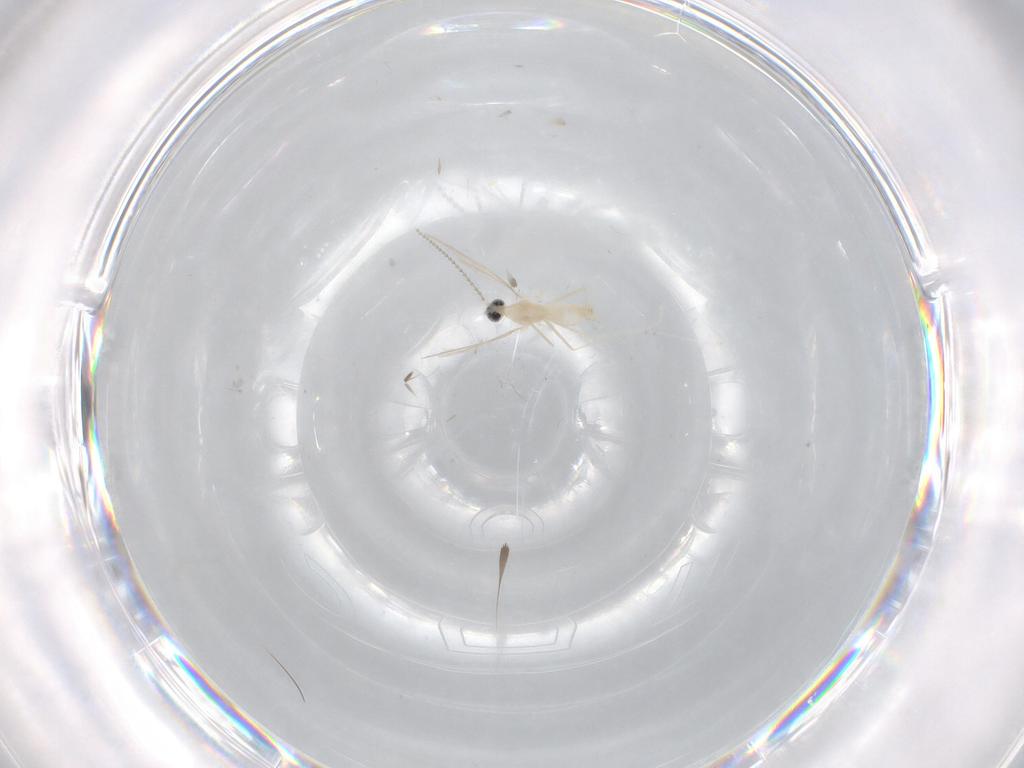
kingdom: Animalia
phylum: Arthropoda
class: Insecta
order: Diptera
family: Cecidomyiidae
